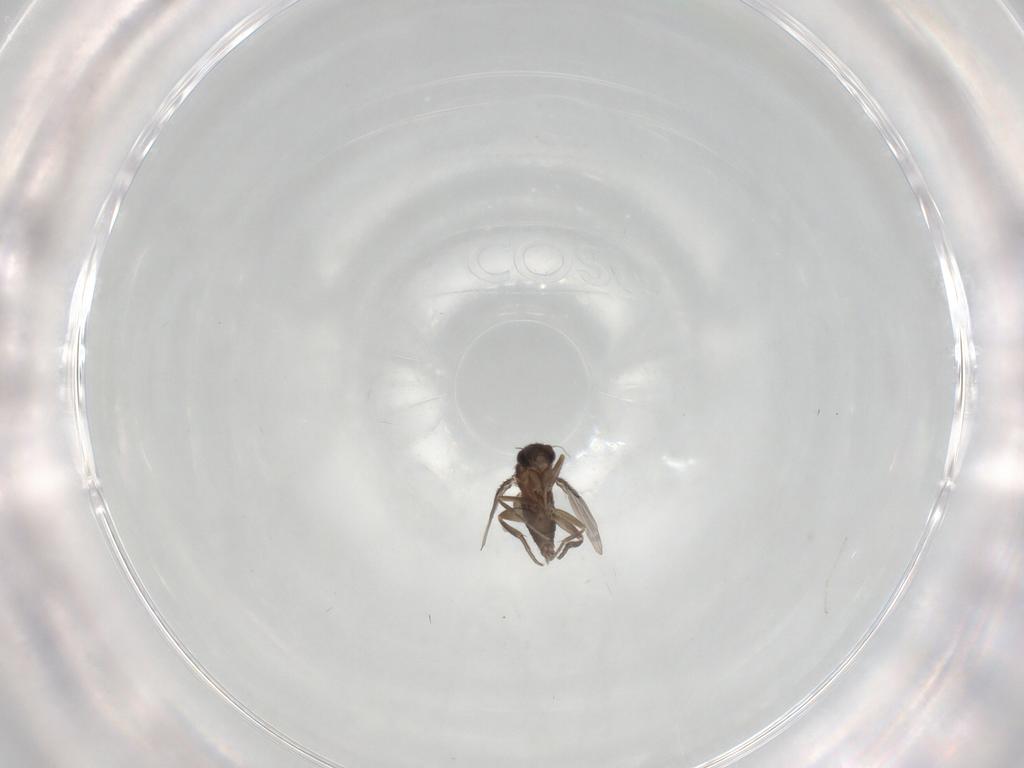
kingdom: Animalia
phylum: Arthropoda
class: Insecta
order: Diptera
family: Cecidomyiidae
